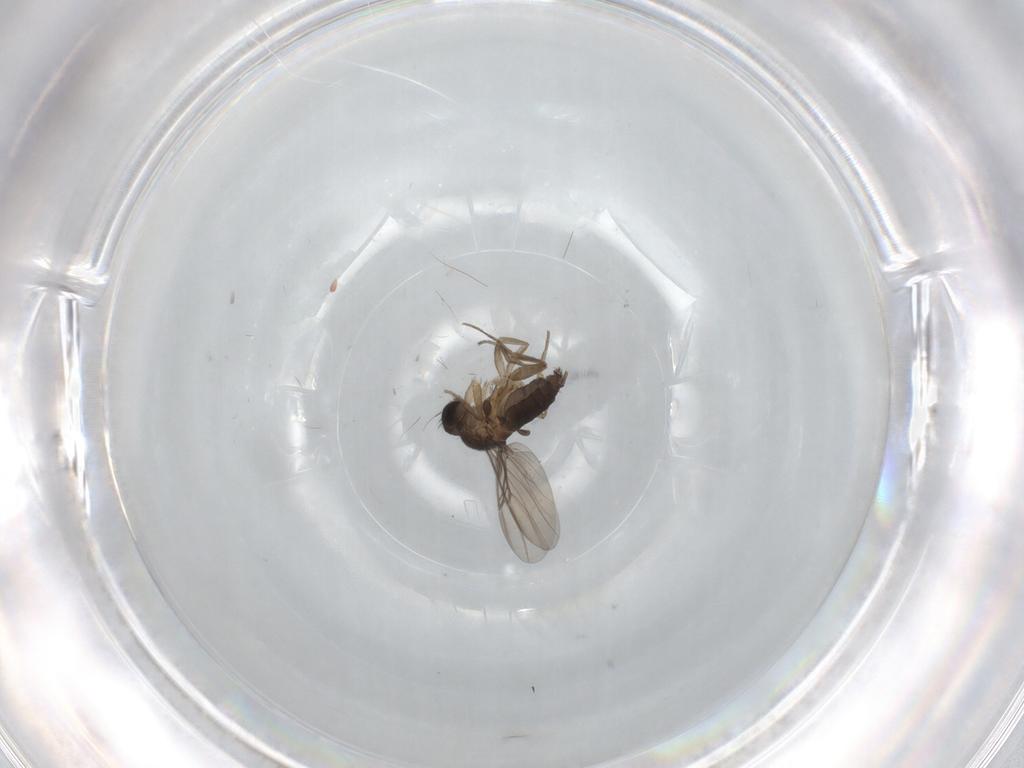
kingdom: Animalia
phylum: Arthropoda
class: Insecta
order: Diptera
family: Phoridae
